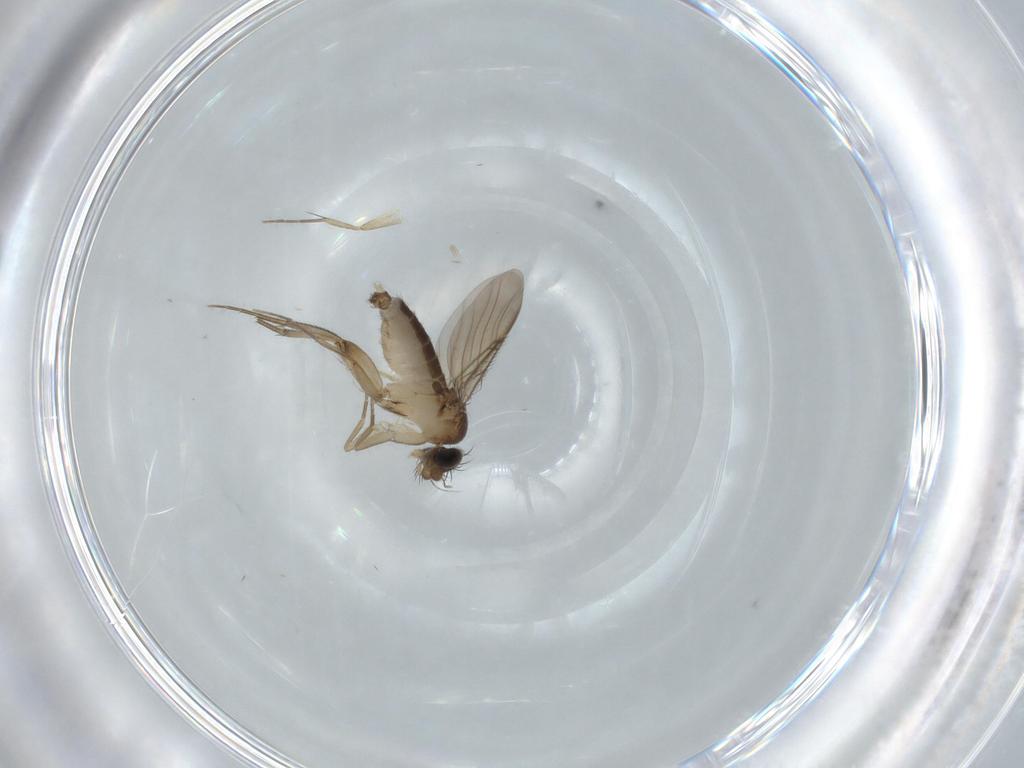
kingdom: Animalia
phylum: Arthropoda
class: Insecta
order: Diptera
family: Phoridae
